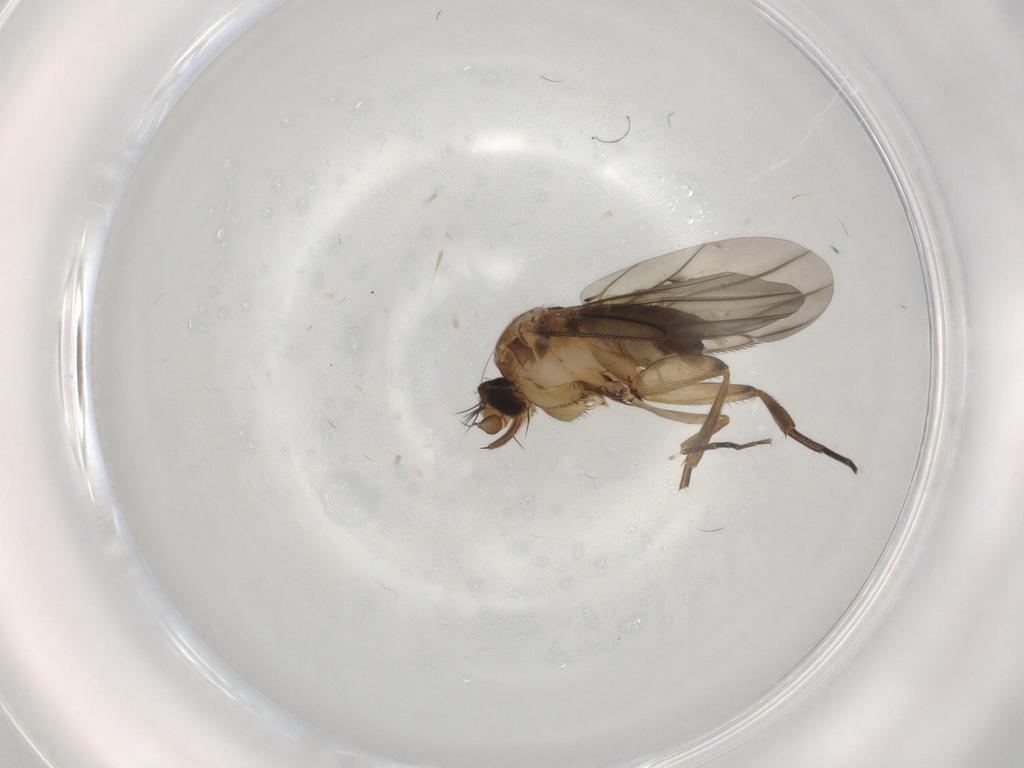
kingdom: Animalia
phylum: Arthropoda
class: Insecta
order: Diptera
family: Phoridae
